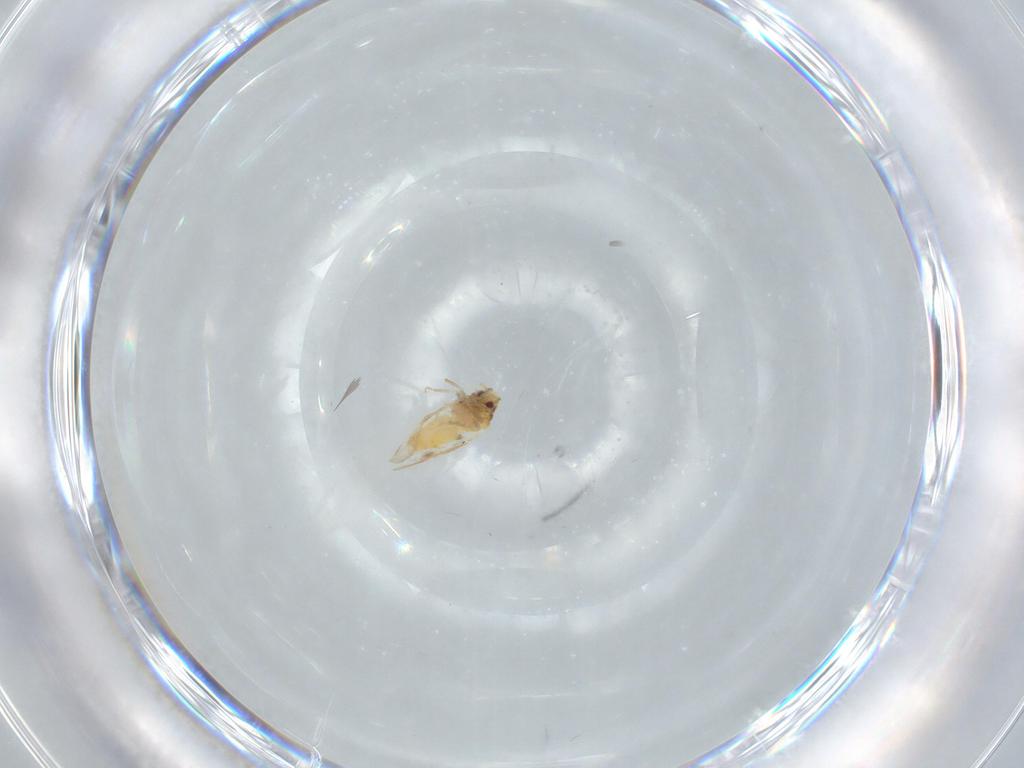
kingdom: Animalia
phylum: Arthropoda
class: Insecta
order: Hemiptera
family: Aleyrodidae
